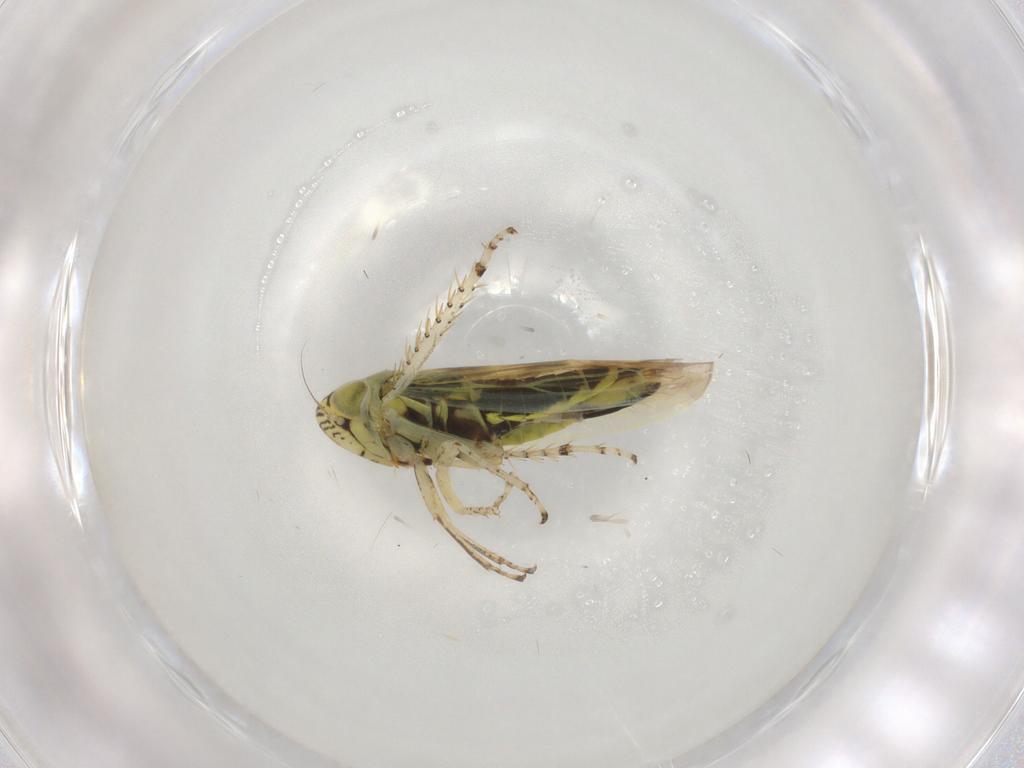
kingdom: Animalia
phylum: Arthropoda
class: Insecta
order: Hemiptera
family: Cicadellidae
